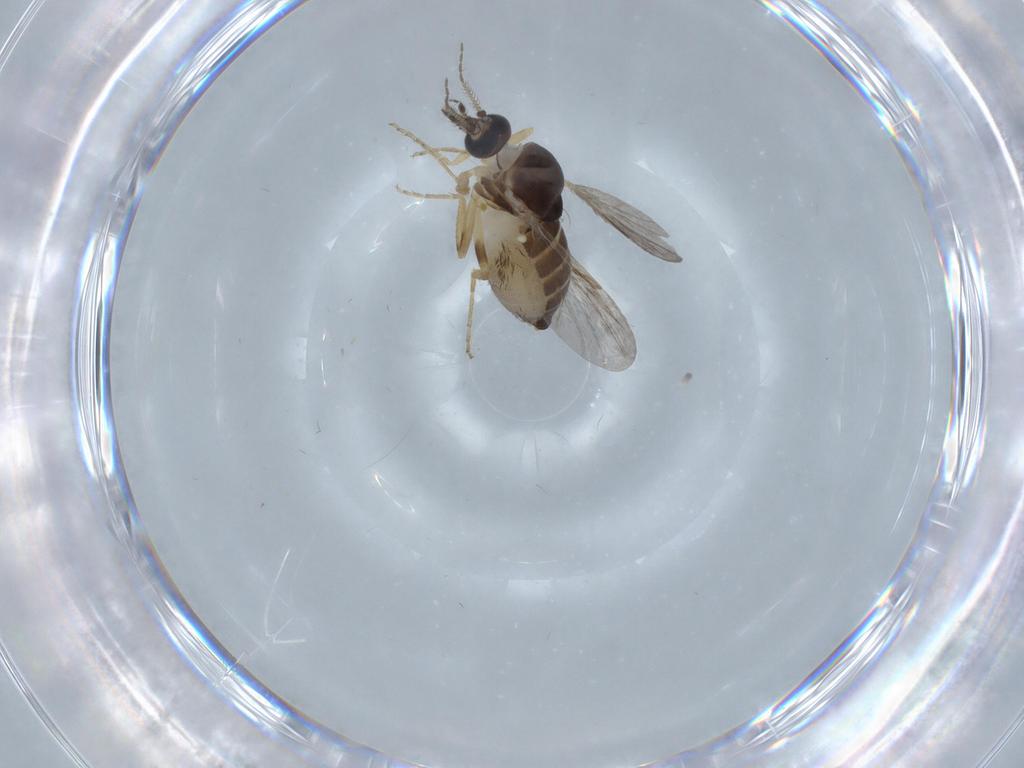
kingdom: Animalia
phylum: Arthropoda
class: Insecta
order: Diptera
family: Ceratopogonidae
